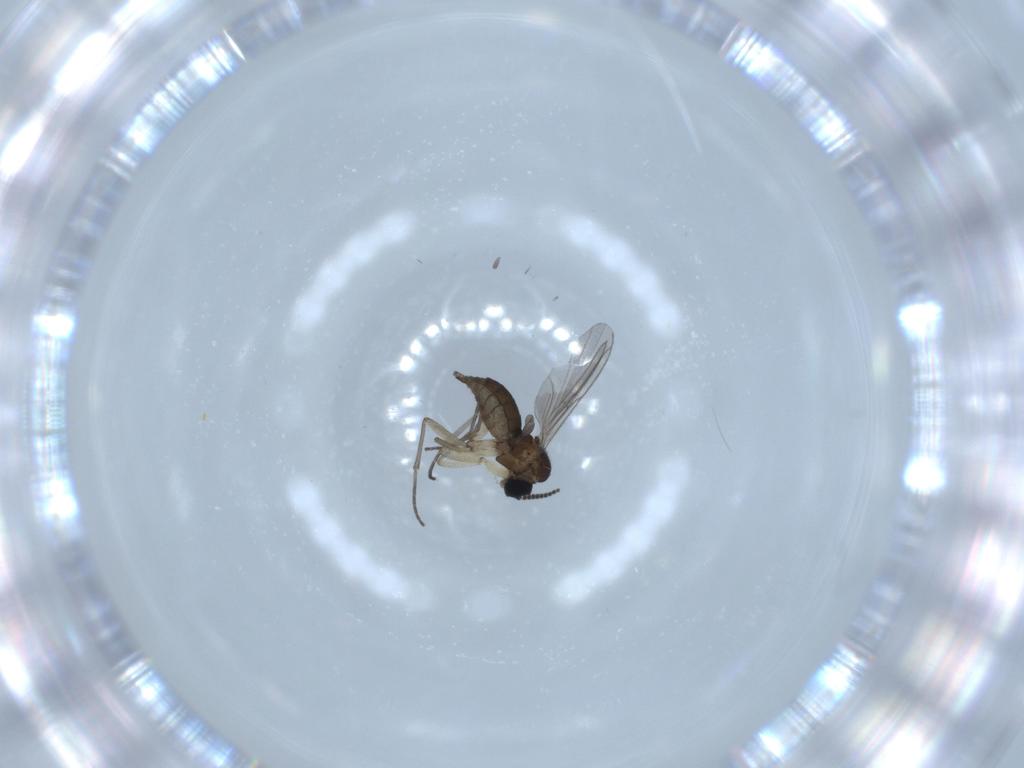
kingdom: Animalia
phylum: Arthropoda
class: Insecta
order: Diptera
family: Sciaridae
